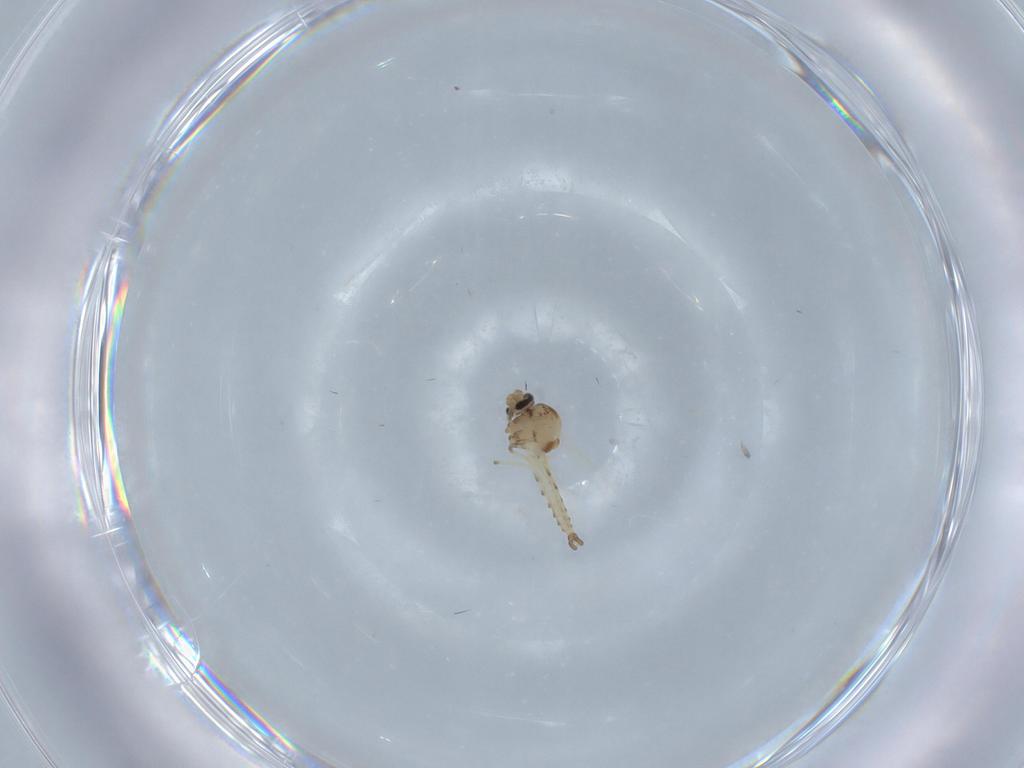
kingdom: Animalia
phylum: Arthropoda
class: Insecta
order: Diptera
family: Ceratopogonidae
